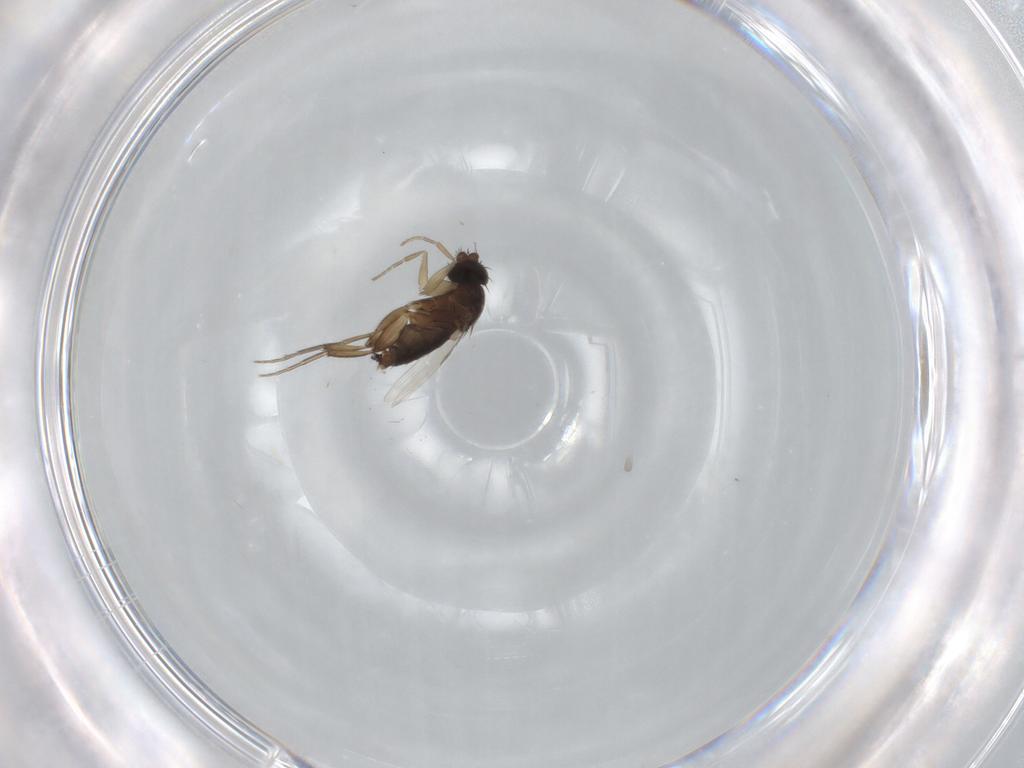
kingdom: Animalia
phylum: Arthropoda
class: Insecta
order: Diptera
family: Phoridae
